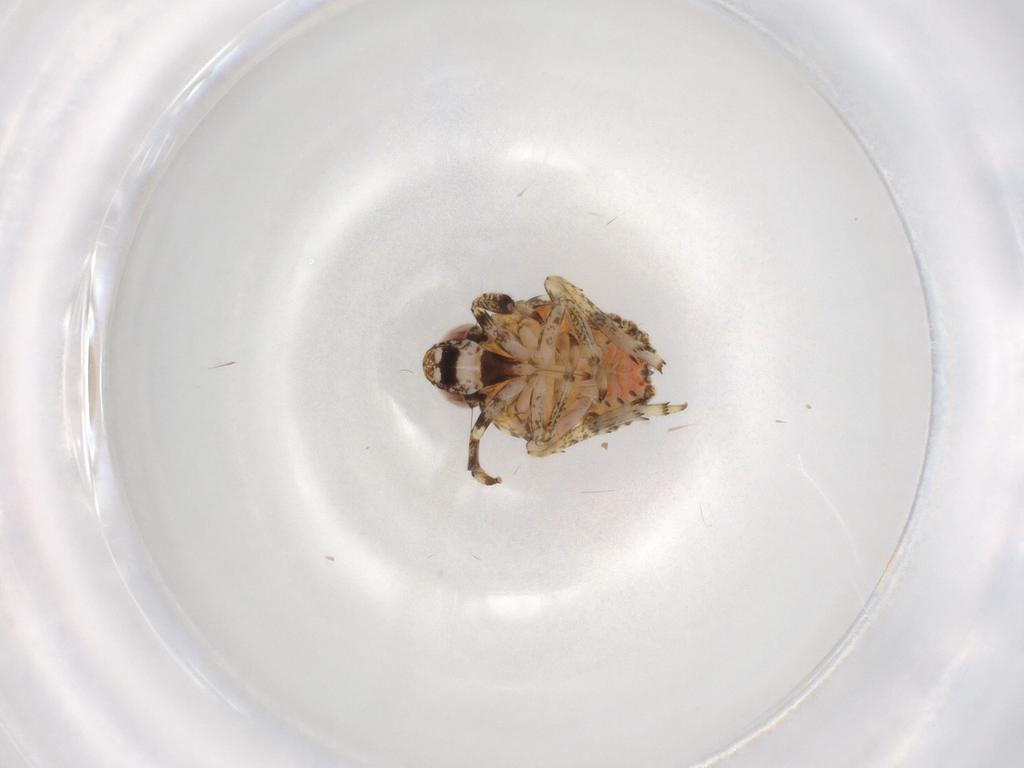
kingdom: Animalia
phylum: Arthropoda
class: Insecta
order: Hemiptera
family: Issidae
